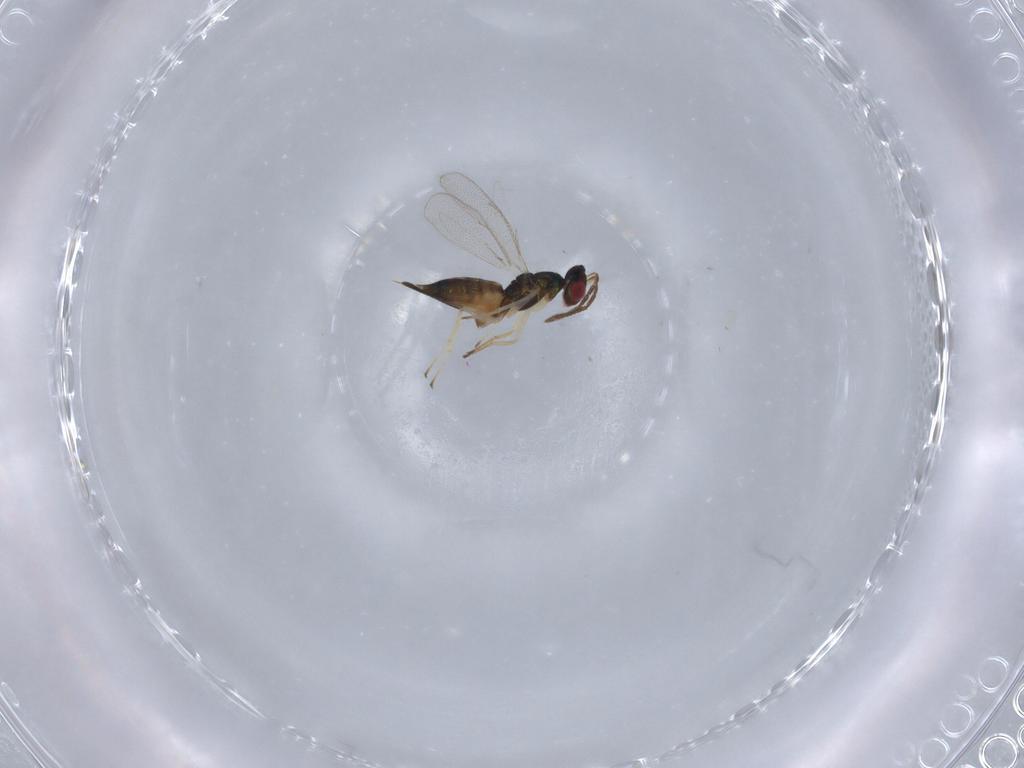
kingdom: Animalia
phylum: Arthropoda
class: Insecta
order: Hymenoptera
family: Eulophidae
